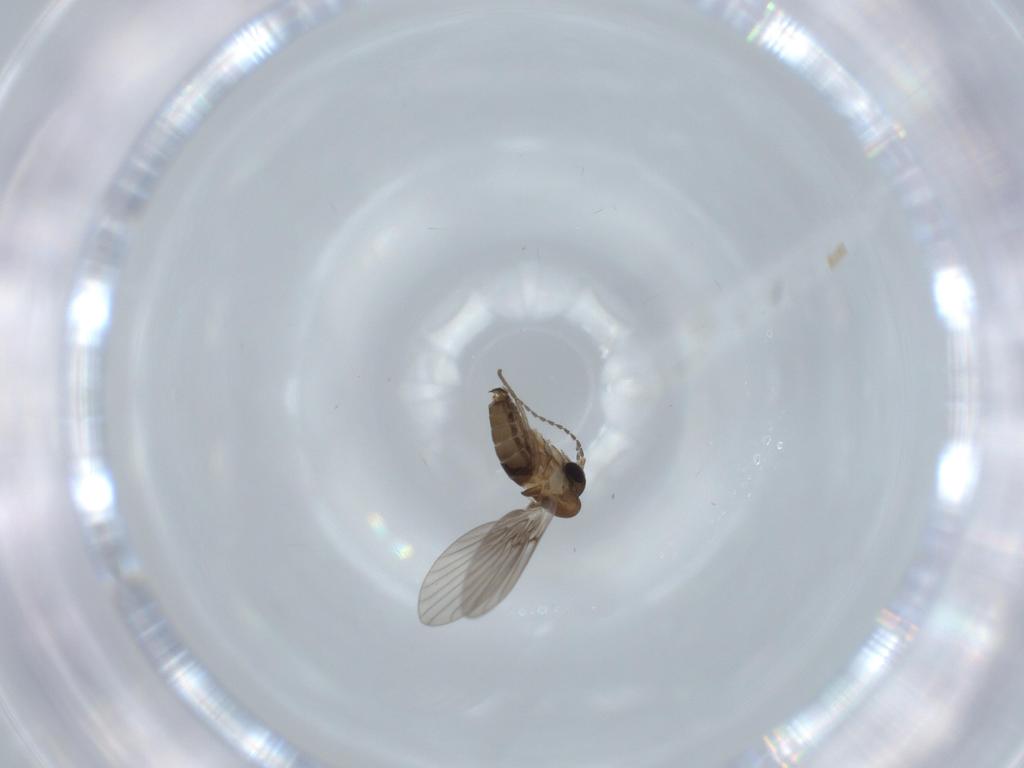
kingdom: Animalia
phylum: Arthropoda
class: Insecta
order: Diptera
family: Psychodidae
